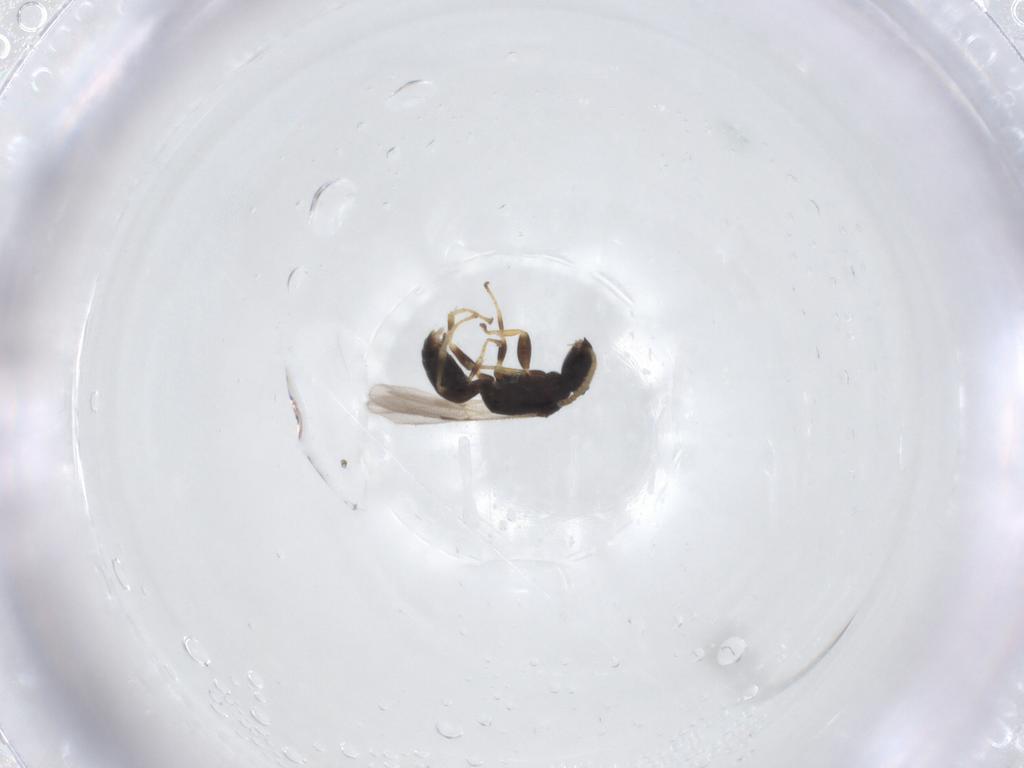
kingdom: Animalia
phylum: Arthropoda
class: Insecta
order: Hymenoptera
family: Bethylidae
